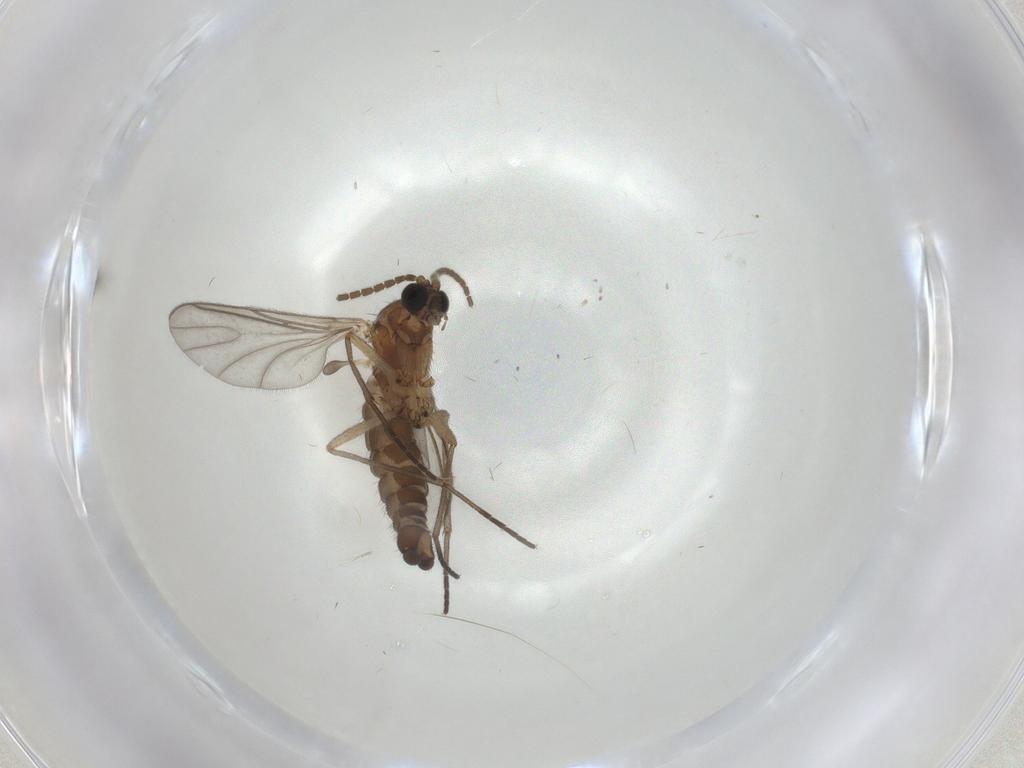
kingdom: Animalia
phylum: Arthropoda
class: Insecta
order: Diptera
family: Sciaridae
